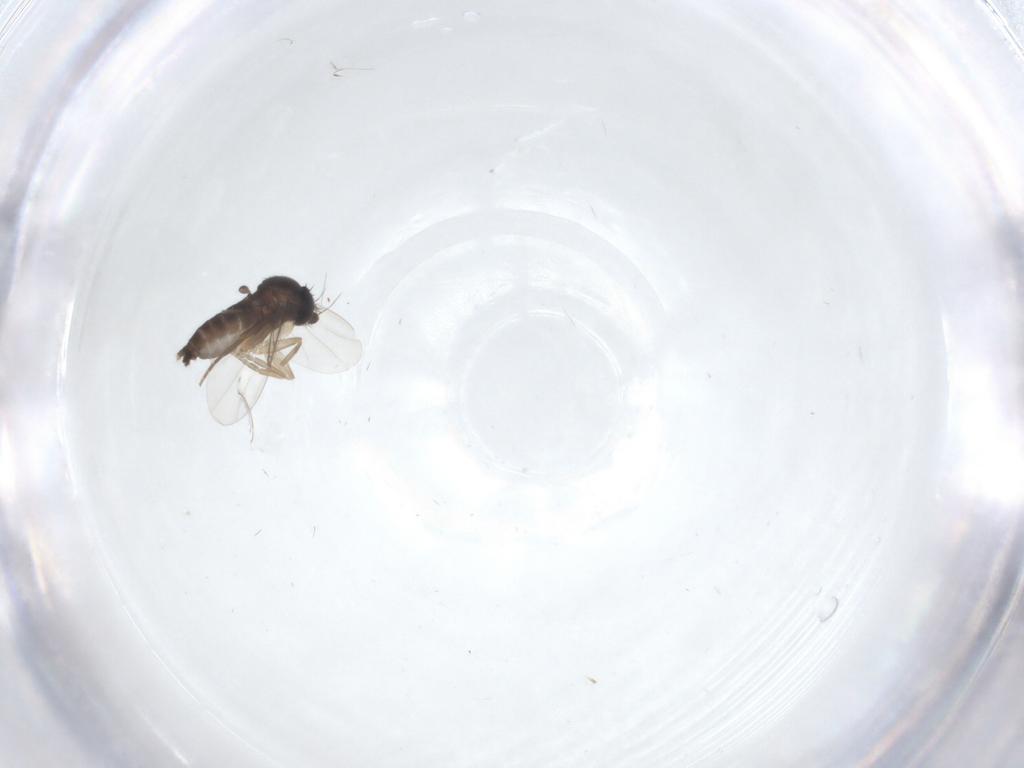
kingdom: Animalia
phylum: Arthropoda
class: Insecta
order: Diptera
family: Phoridae
